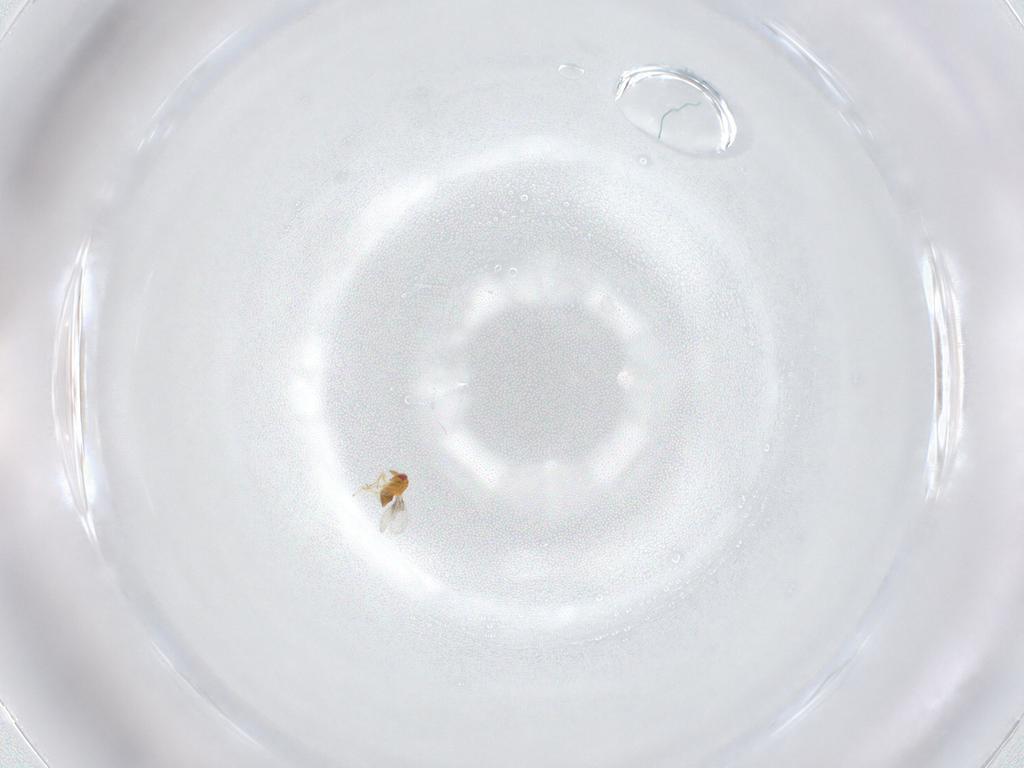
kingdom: Animalia
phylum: Arthropoda
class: Insecta
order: Hymenoptera
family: Trichogrammatidae
